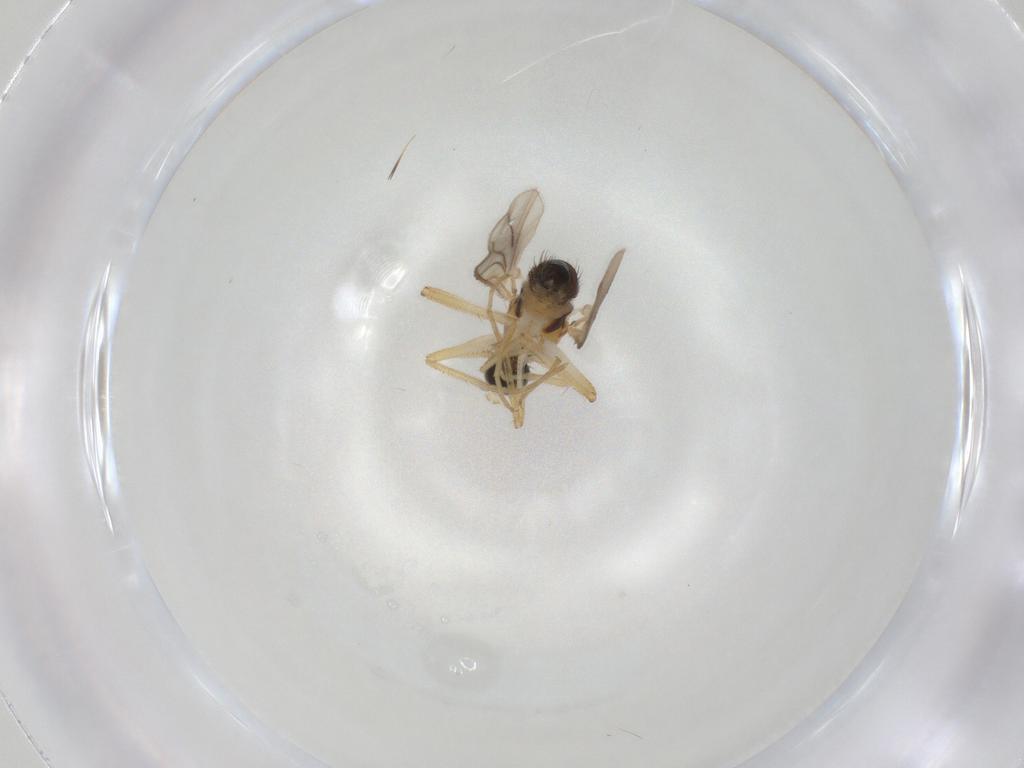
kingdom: Animalia
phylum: Arthropoda
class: Insecta
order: Diptera
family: Hybotidae
